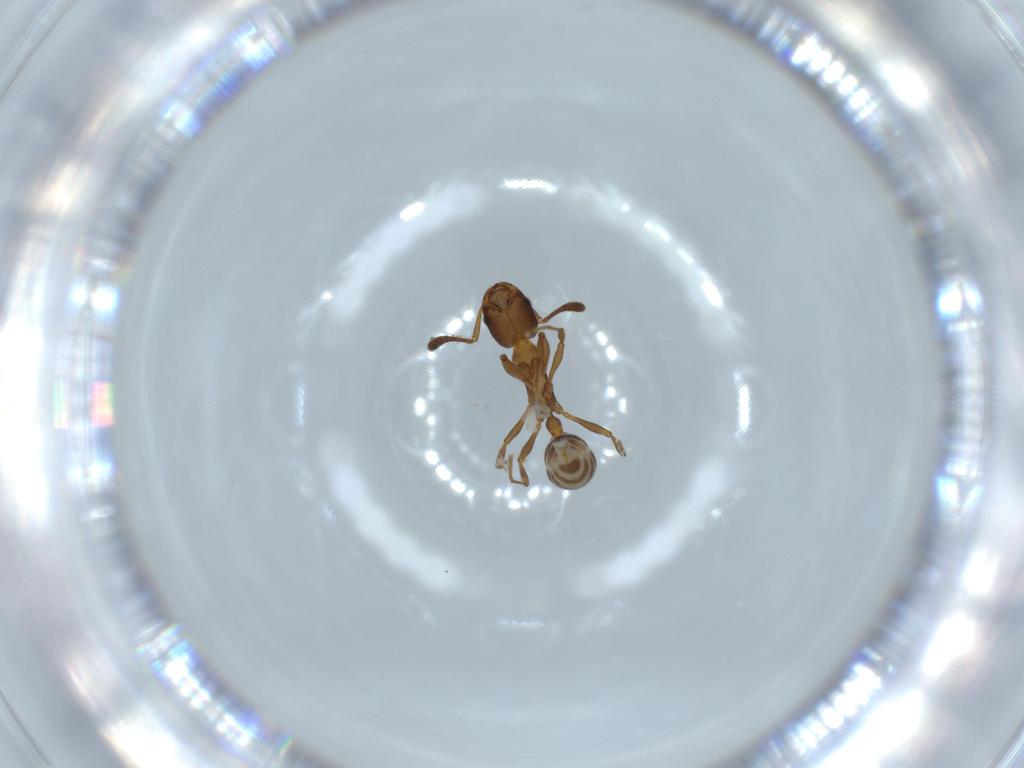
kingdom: Animalia
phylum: Arthropoda
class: Insecta
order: Hymenoptera
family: Formicidae
